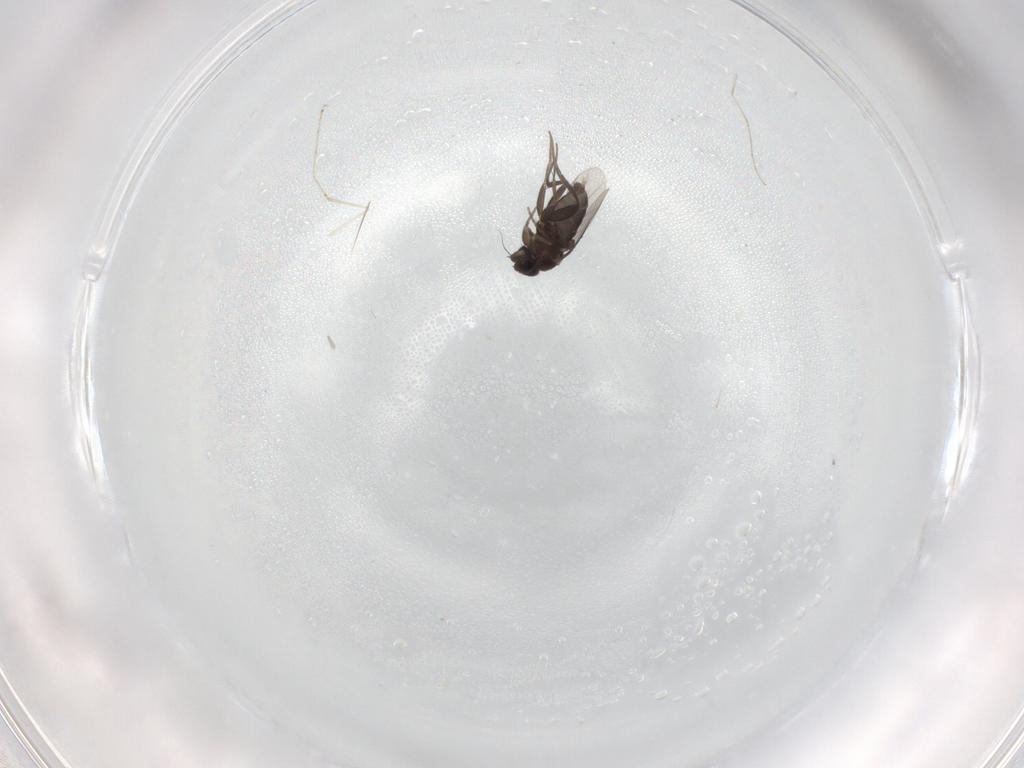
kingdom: Animalia
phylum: Arthropoda
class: Insecta
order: Diptera
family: Phoridae
